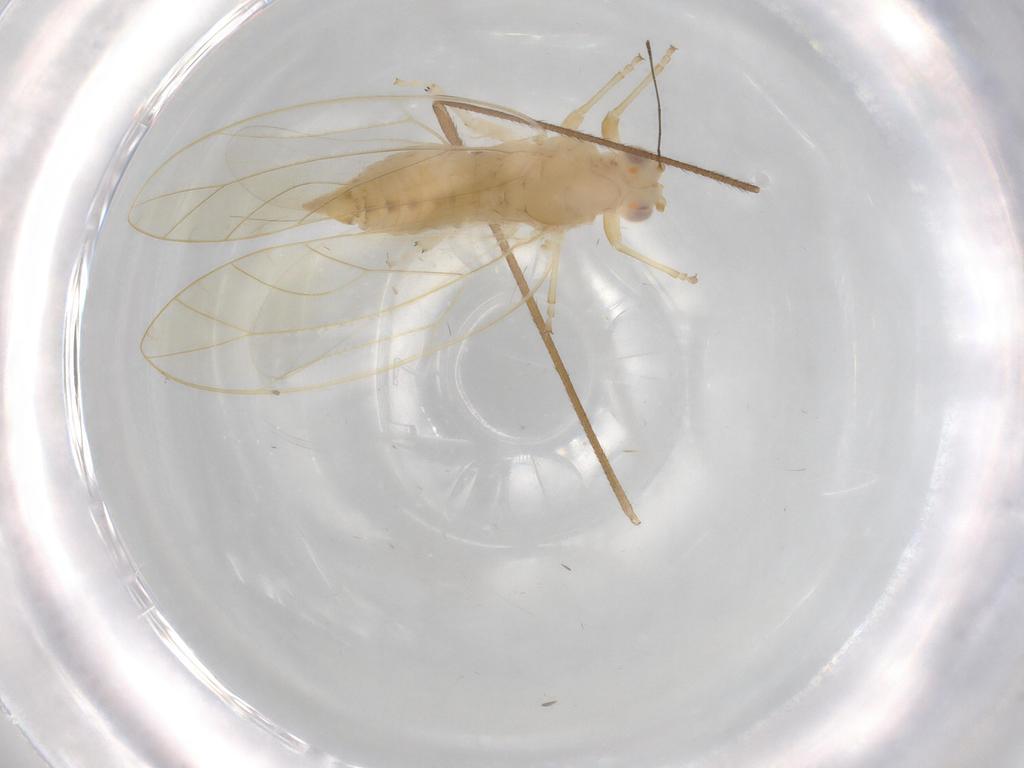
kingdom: Animalia
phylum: Arthropoda
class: Insecta
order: Hemiptera
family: Triozidae
